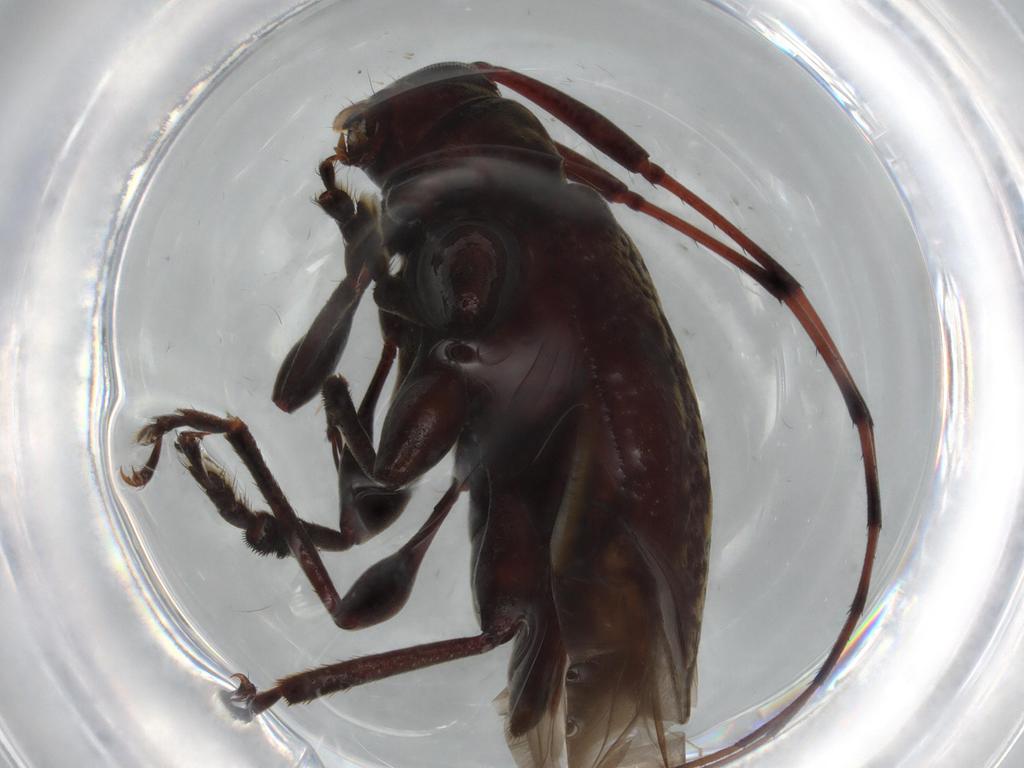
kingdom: Animalia
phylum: Arthropoda
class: Insecta
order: Coleoptera
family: Cerambycidae
